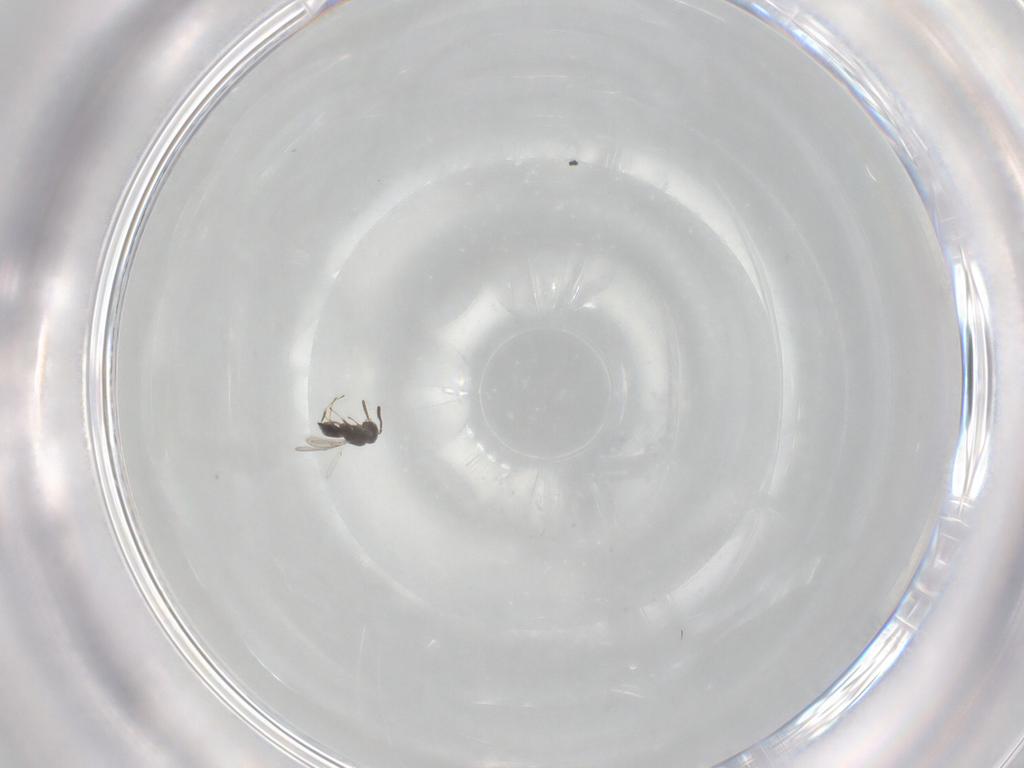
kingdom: Animalia
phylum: Arthropoda
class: Insecta
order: Hymenoptera
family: Scelionidae
